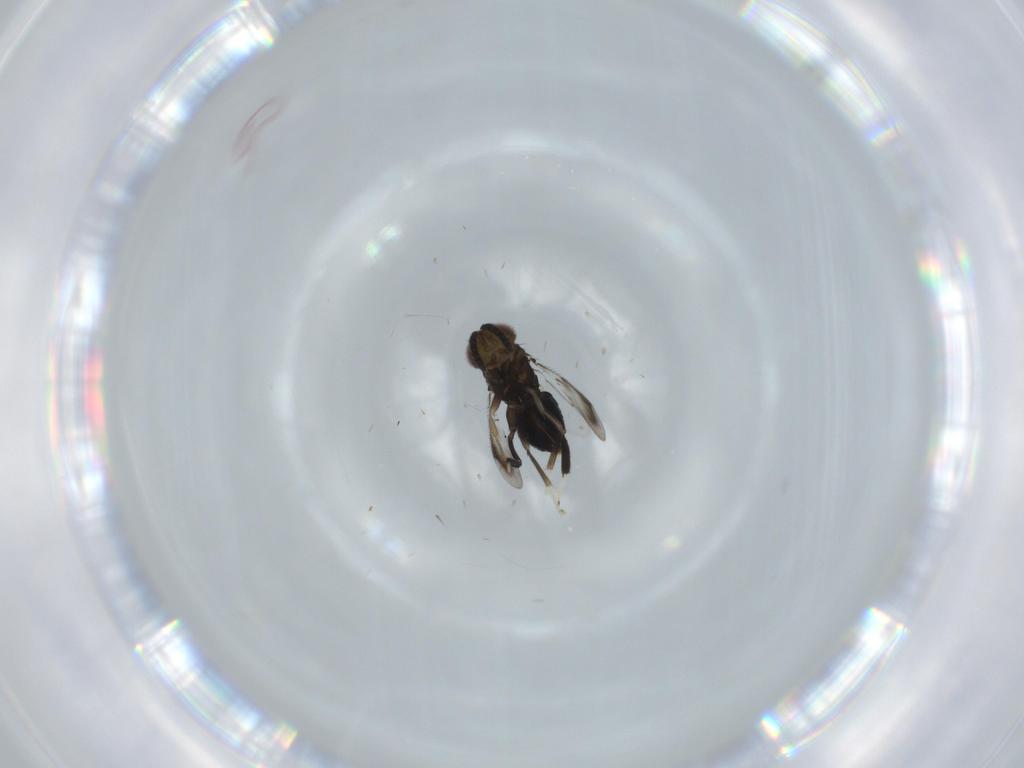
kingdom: Animalia
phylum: Arthropoda
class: Insecta
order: Hymenoptera
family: Aphelinidae
